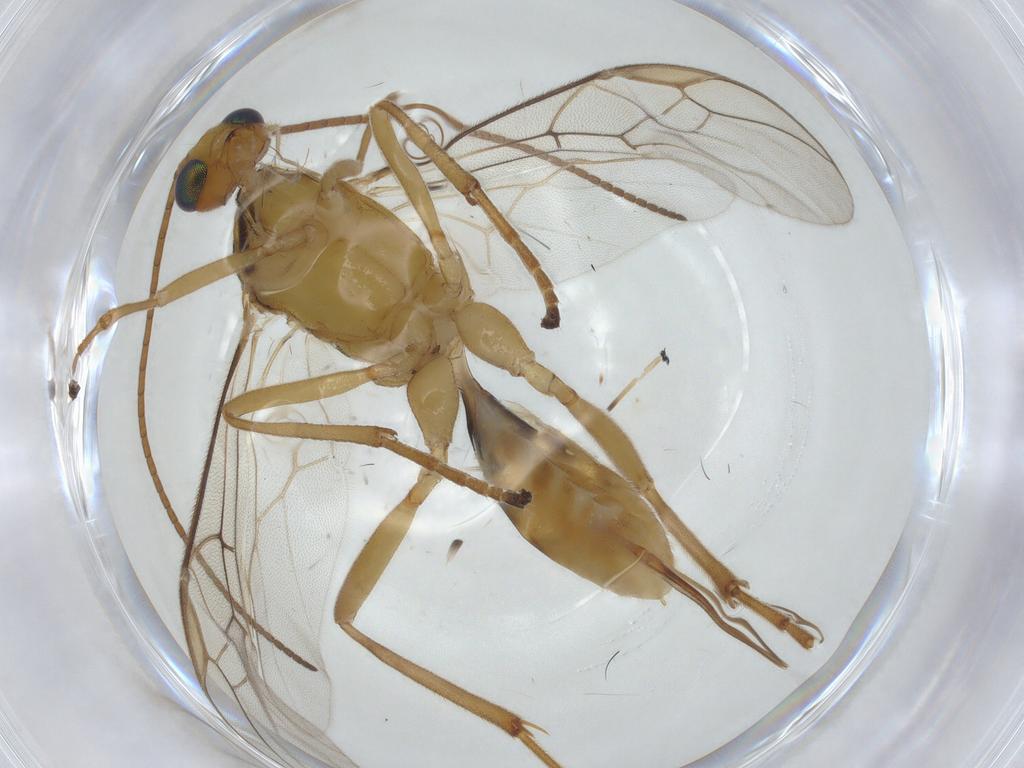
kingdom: Animalia
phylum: Arthropoda
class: Insecta
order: Hymenoptera
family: Braconidae
